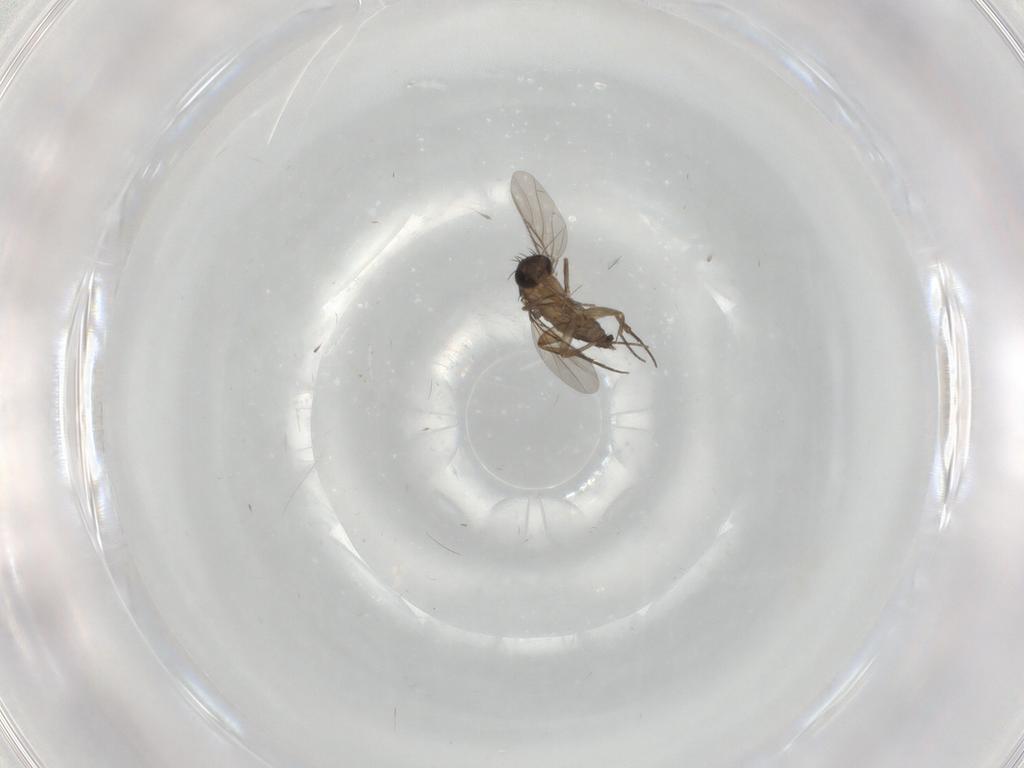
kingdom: Animalia
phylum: Arthropoda
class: Insecta
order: Diptera
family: Phoridae
